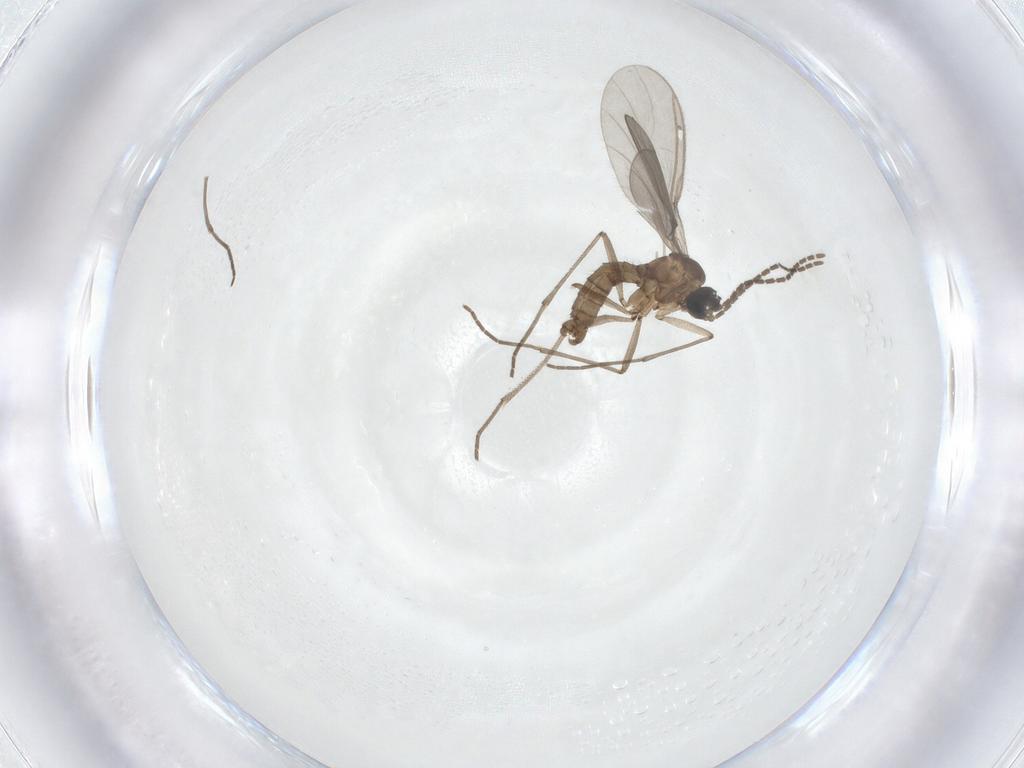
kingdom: Animalia
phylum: Arthropoda
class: Insecta
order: Diptera
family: Sciaridae
